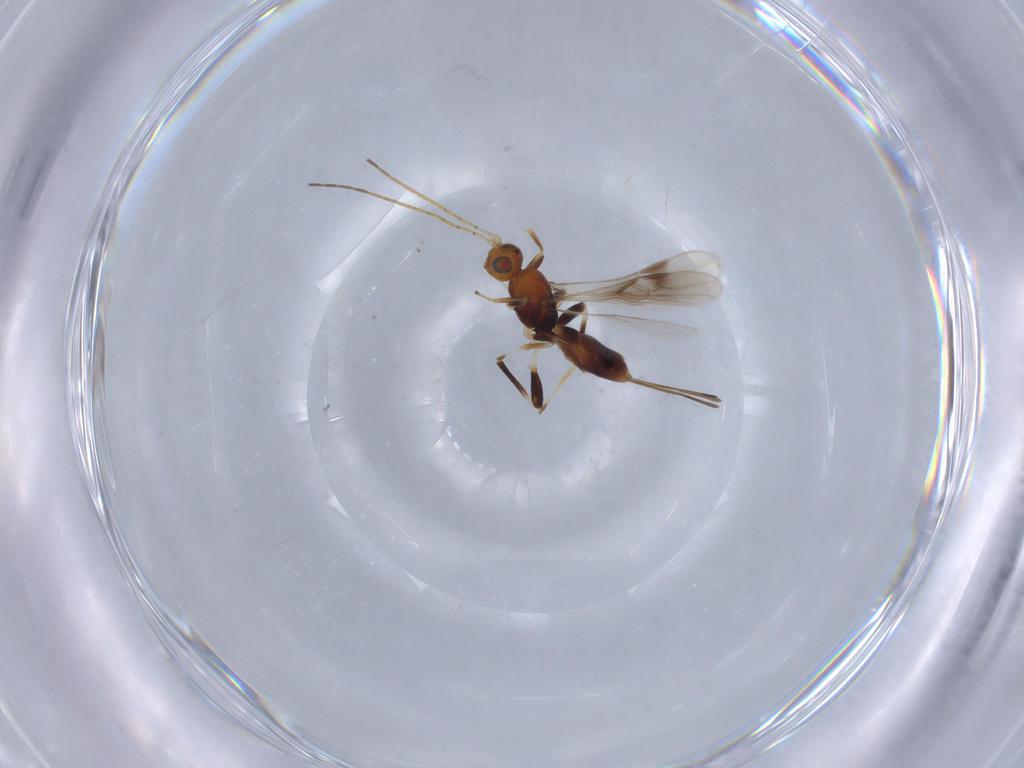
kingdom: Animalia
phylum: Arthropoda
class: Insecta
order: Hymenoptera
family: Braconidae
